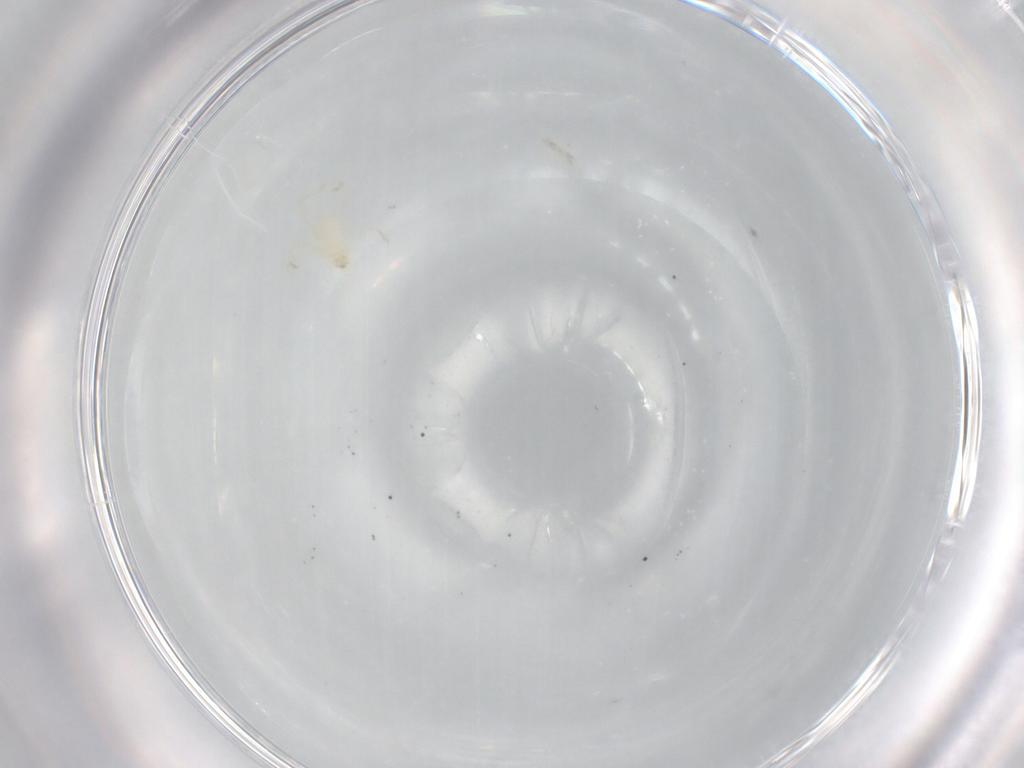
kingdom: Animalia
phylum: Arthropoda
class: Arachnida
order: Trombidiformes
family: Erythraeidae
